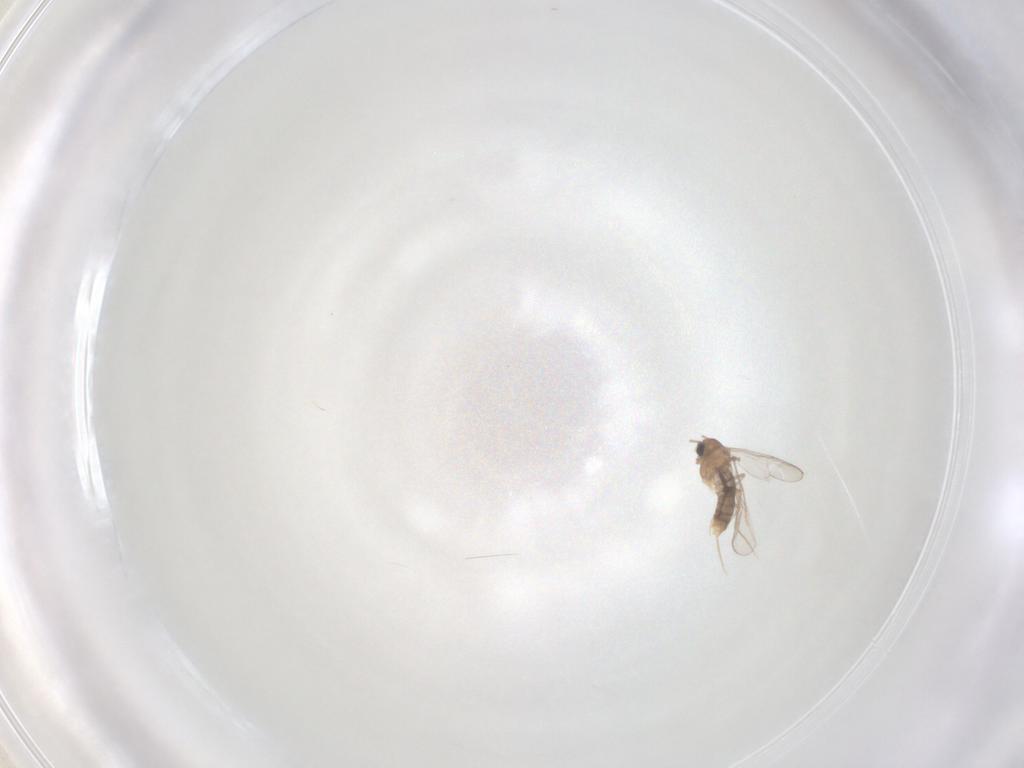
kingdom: Animalia
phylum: Arthropoda
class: Insecta
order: Diptera
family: Chironomidae
